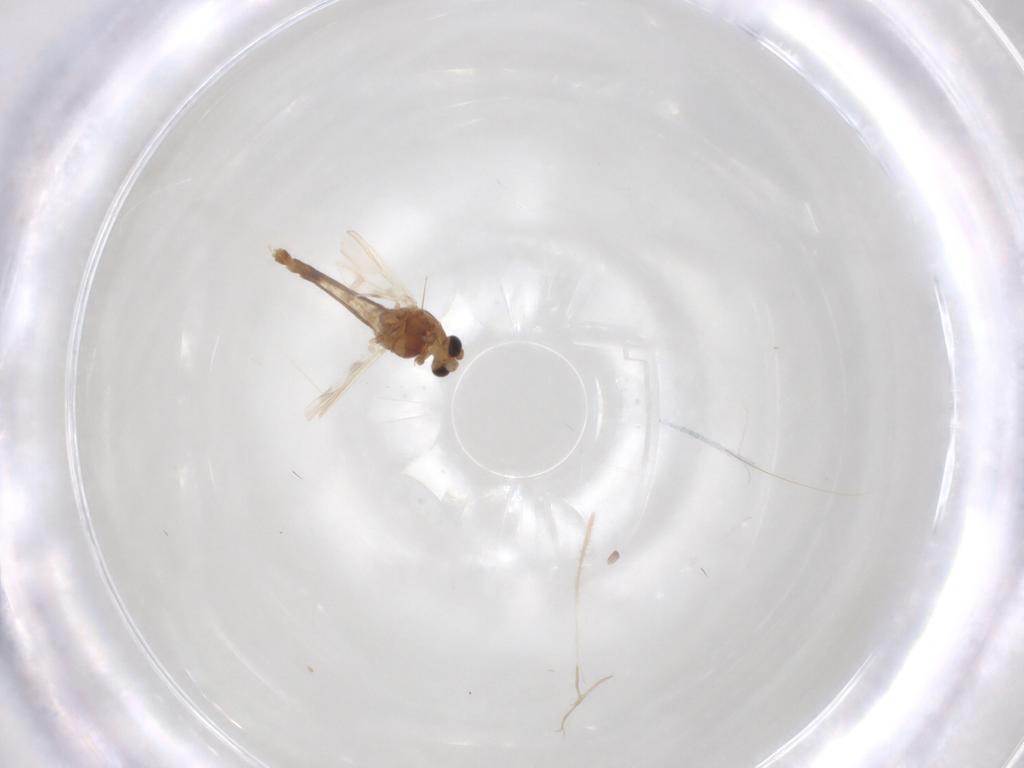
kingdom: Animalia
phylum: Arthropoda
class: Insecta
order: Diptera
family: Chironomidae
